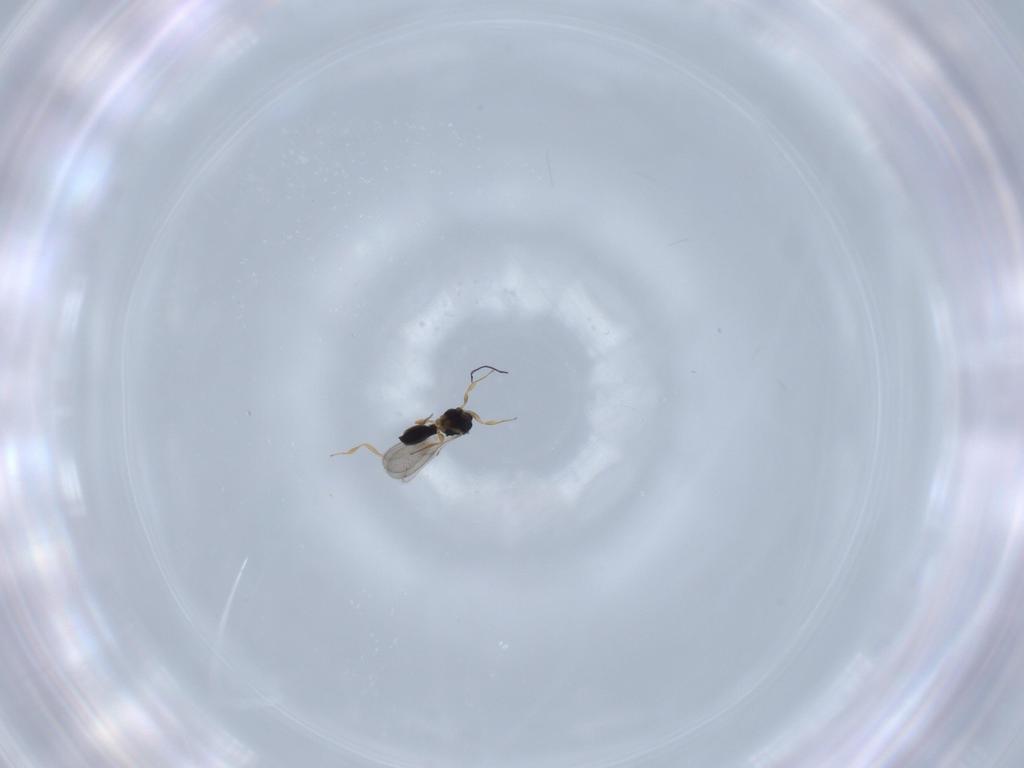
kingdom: Animalia
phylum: Arthropoda
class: Insecta
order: Hymenoptera
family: Scelionidae
